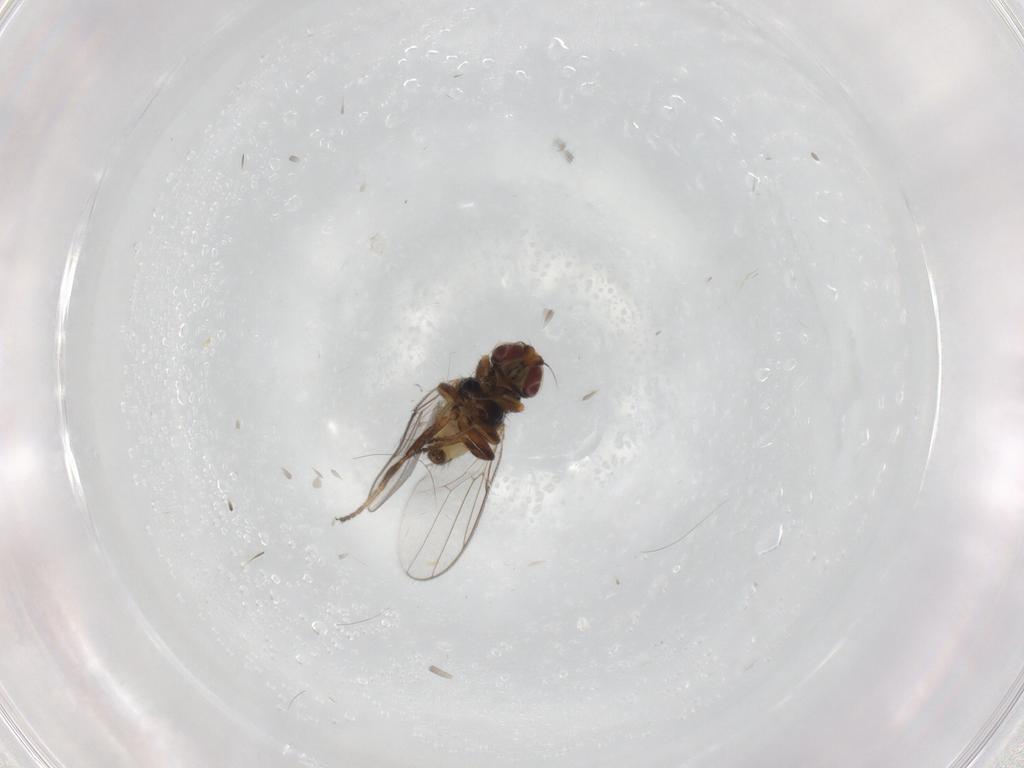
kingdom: Animalia
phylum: Arthropoda
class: Insecta
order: Diptera
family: Chloropidae
